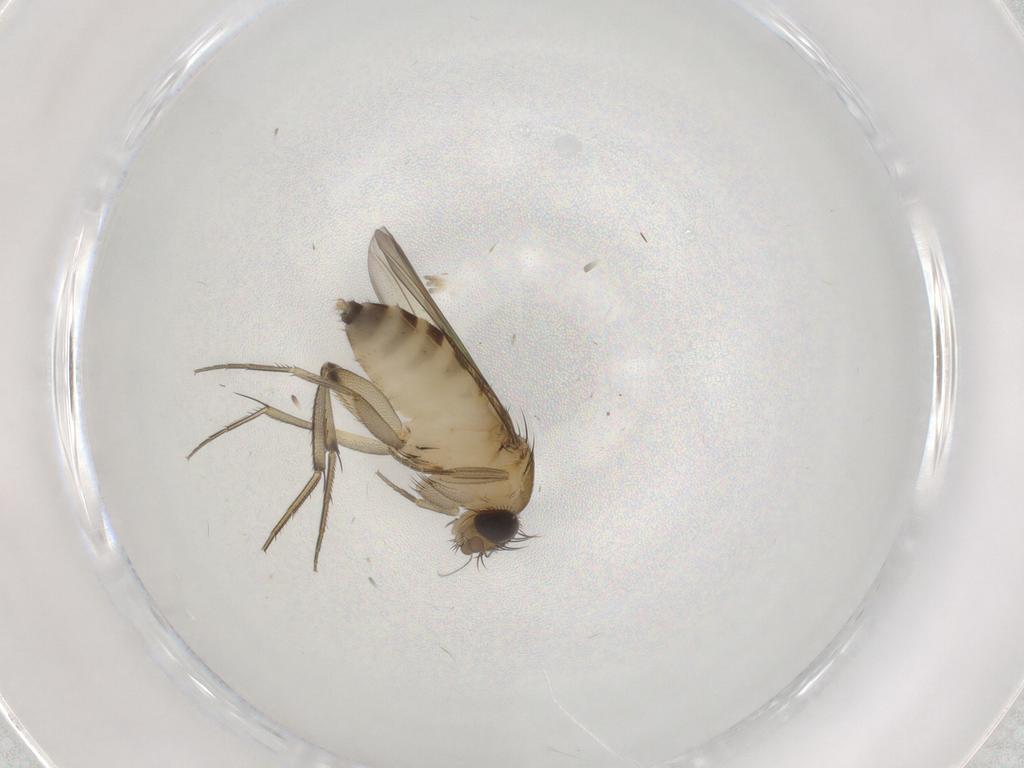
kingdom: Animalia
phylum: Arthropoda
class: Insecta
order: Diptera
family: Phoridae
